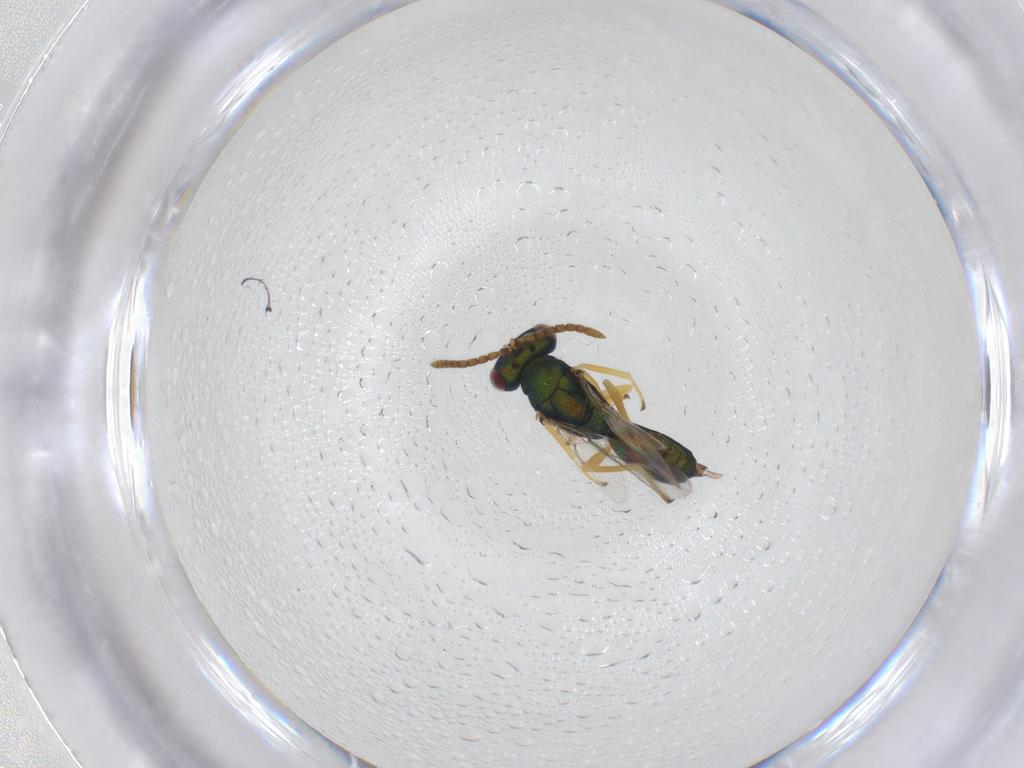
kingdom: Animalia
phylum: Arthropoda
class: Insecta
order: Hymenoptera
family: Pteromalidae
